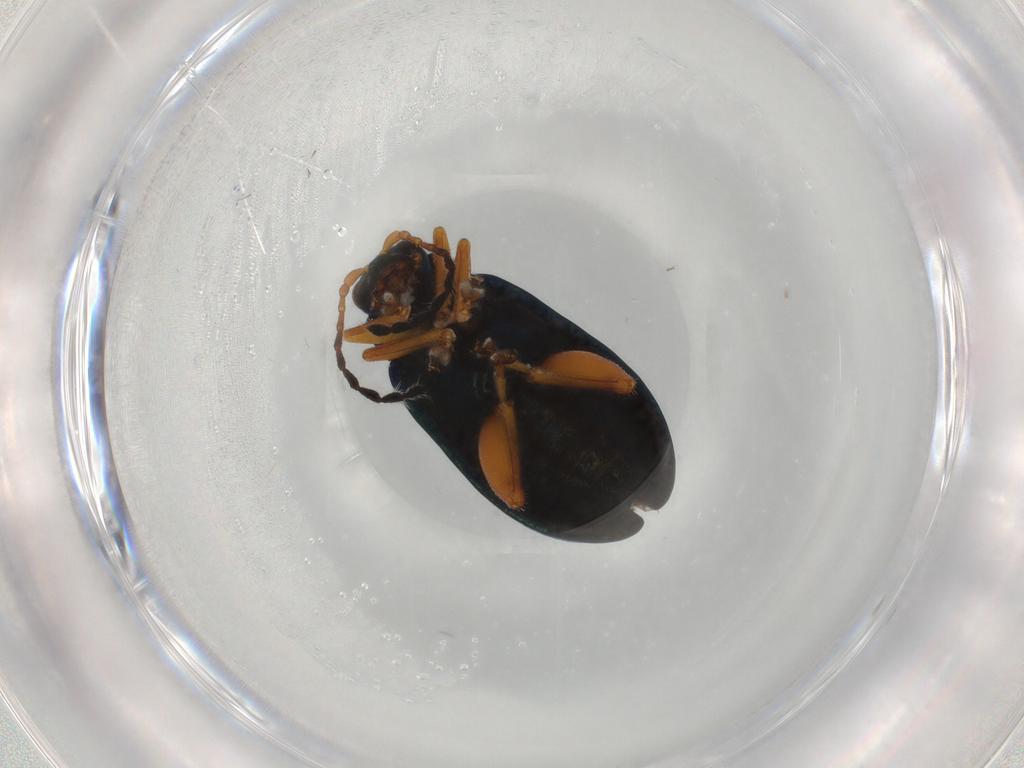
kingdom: Animalia
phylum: Arthropoda
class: Insecta
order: Coleoptera
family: Chrysomelidae
